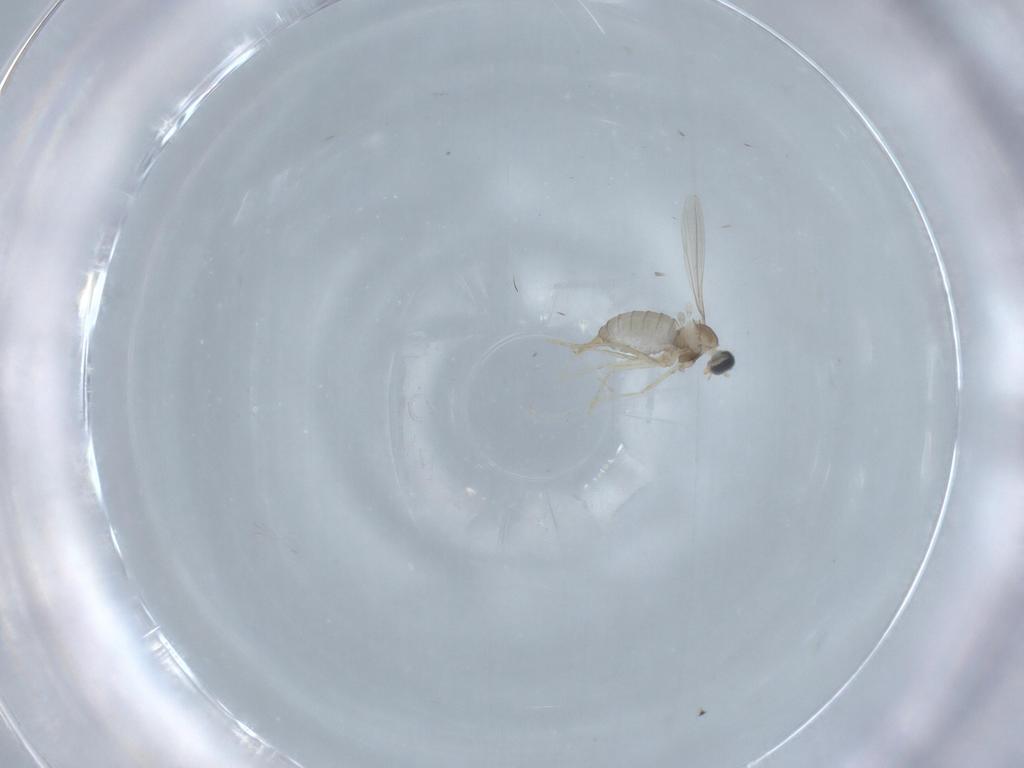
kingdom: Animalia
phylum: Arthropoda
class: Insecta
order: Diptera
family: Cecidomyiidae
